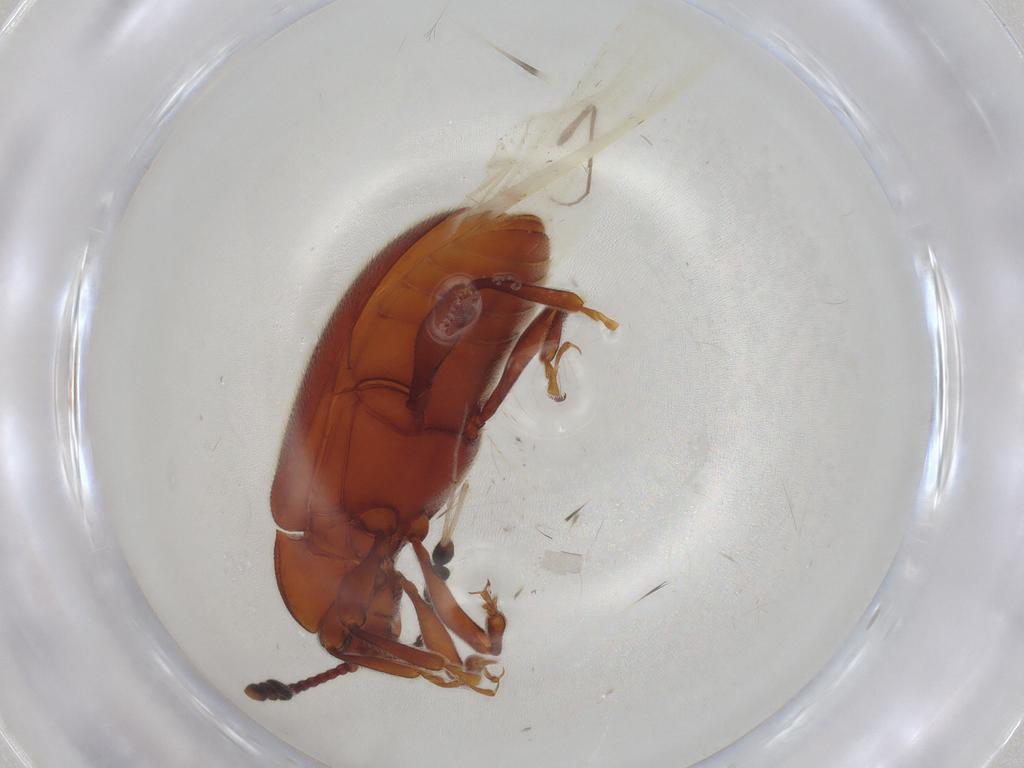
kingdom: Animalia
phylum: Arthropoda
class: Insecta
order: Coleoptera
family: Endomychidae
